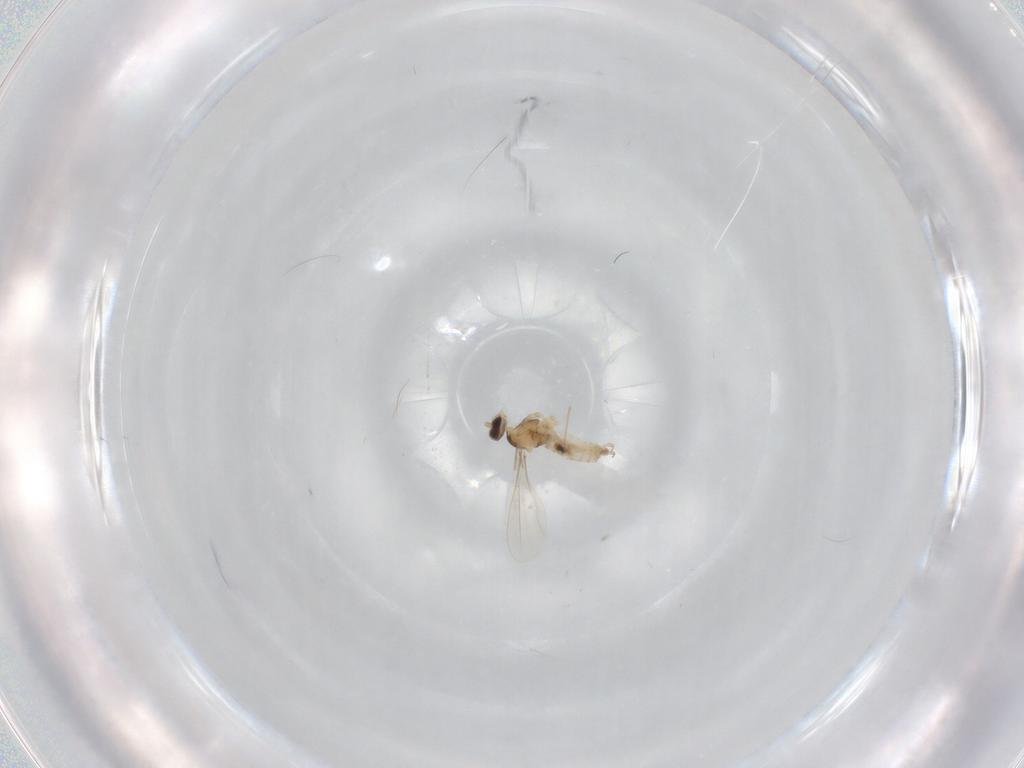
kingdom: Animalia
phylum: Arthropoda
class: Insecta
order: Diptera
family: Cecidomyiidae
